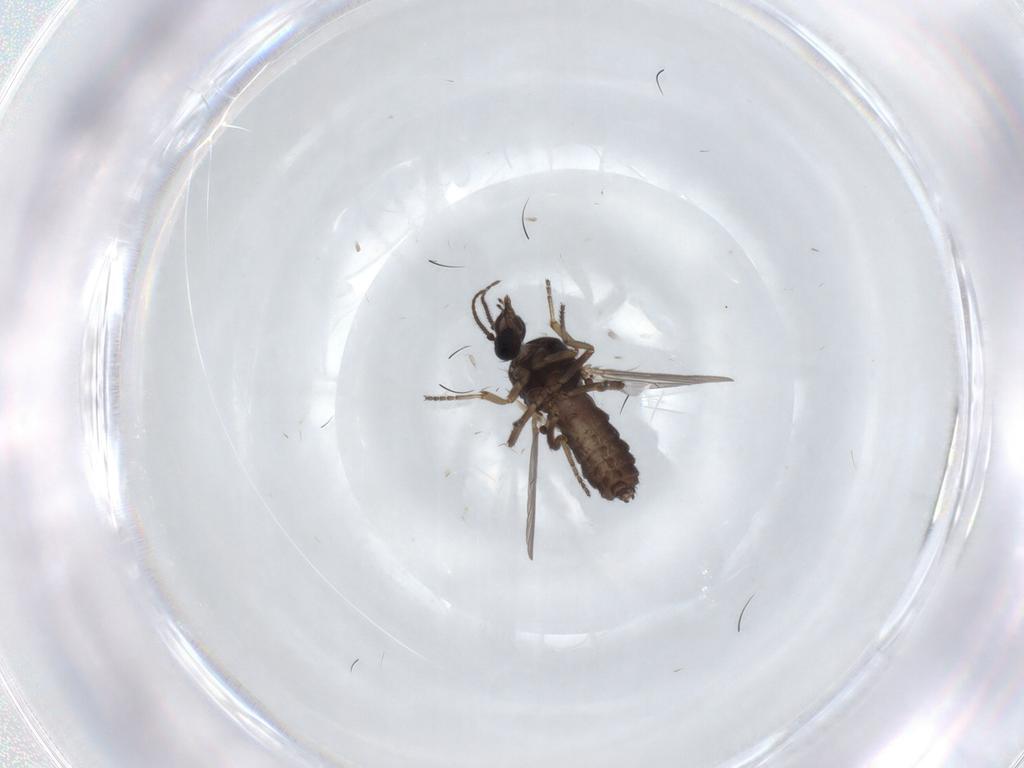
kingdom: Animalia
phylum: Arthropoda
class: Insecta
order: Diptera
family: Ceratopogonidae
